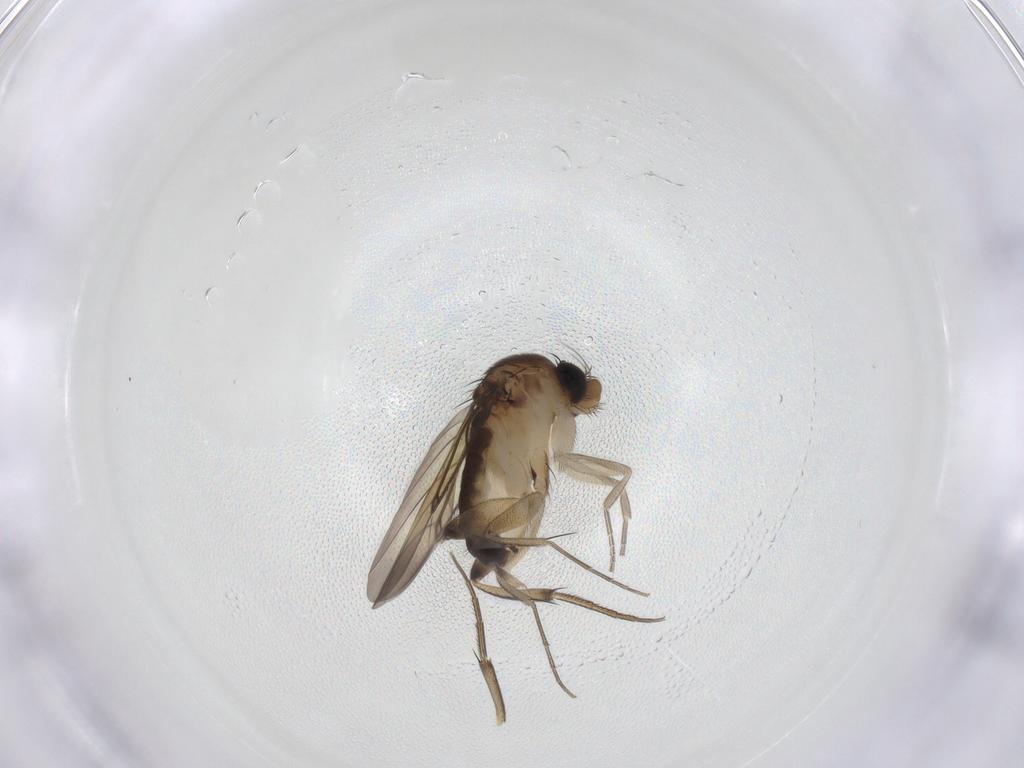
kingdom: Animalia
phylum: Arthropoda
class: Insecta
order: Diptera
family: Phoridae
